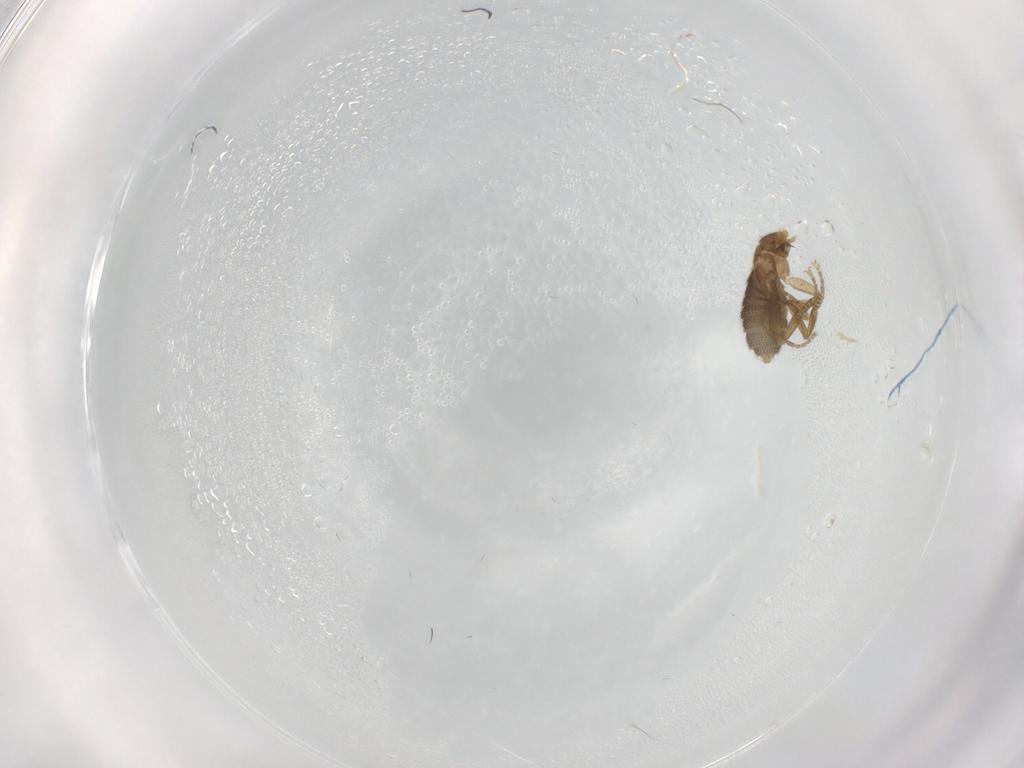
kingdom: Animalia
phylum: Arthropoda
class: Insecta
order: Diptera
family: Phoridae
